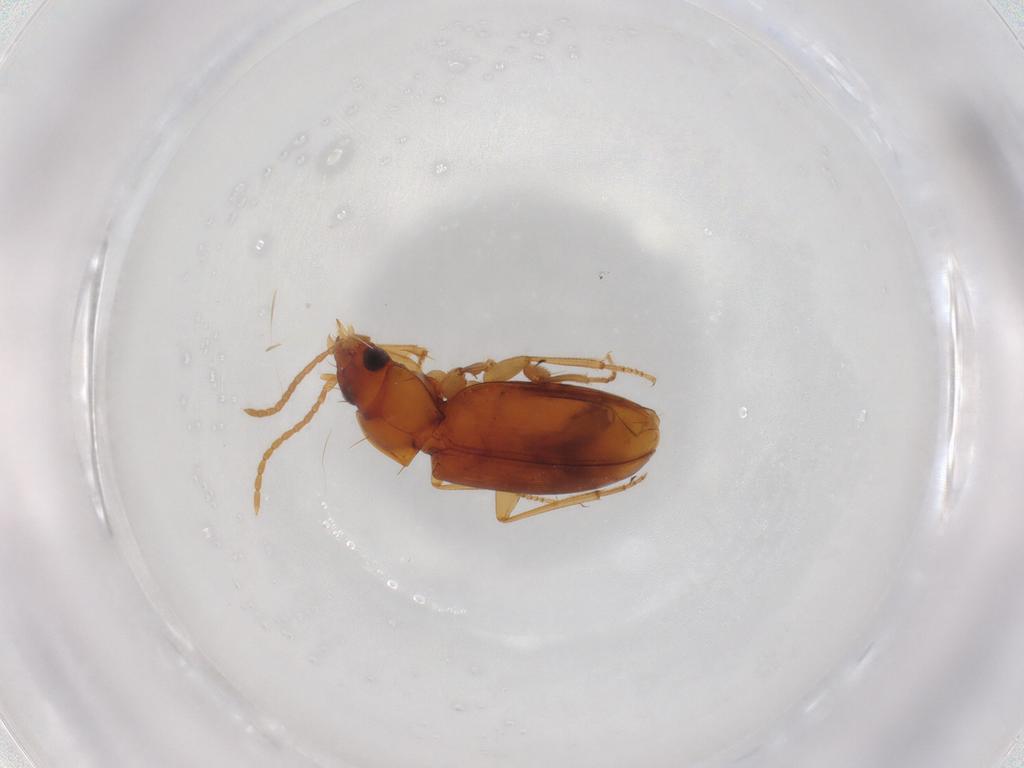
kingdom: Animalia
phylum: Arthropoda
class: Insecta
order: Coleoptera
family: Carabidae
